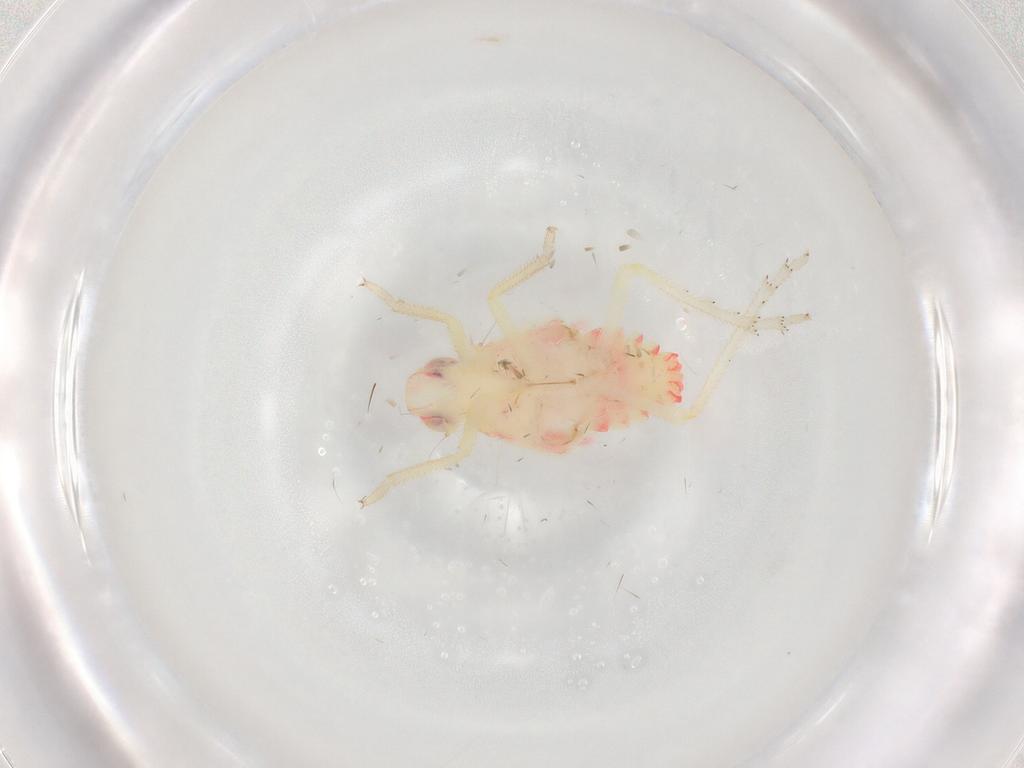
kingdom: Animalia
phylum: Arthropoda
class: Insecta
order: Hemiptera
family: Tropiduchidae
